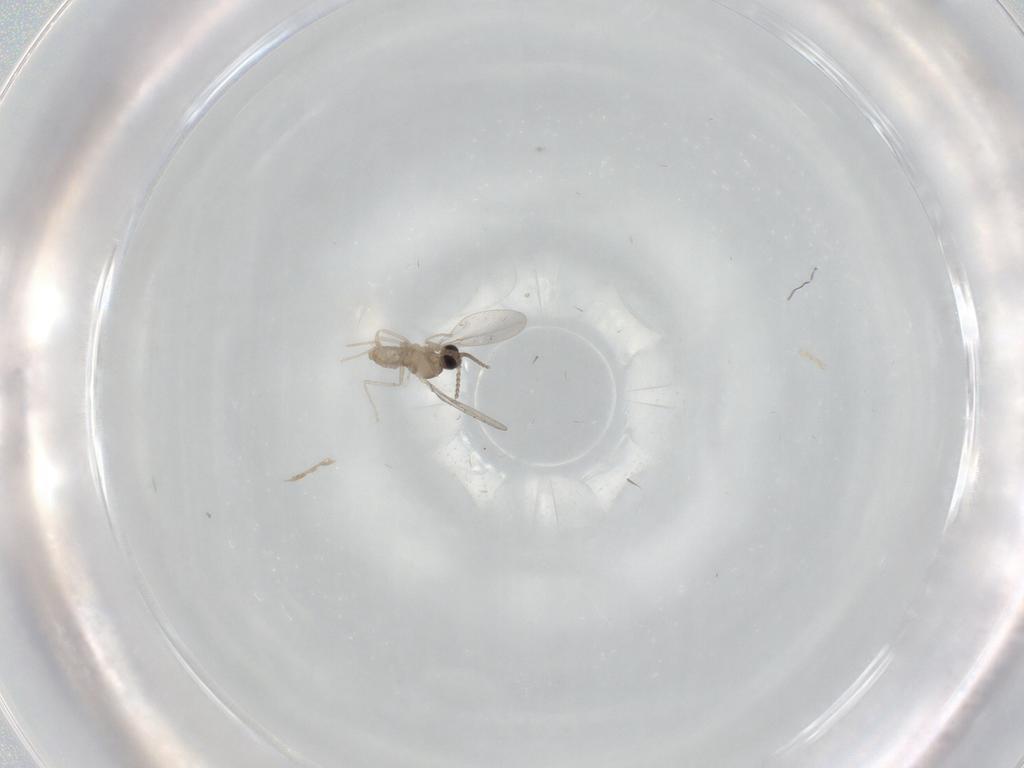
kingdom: Animalia
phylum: Arthropoda
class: Insecta
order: Diptera
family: Cecidomyiidae
